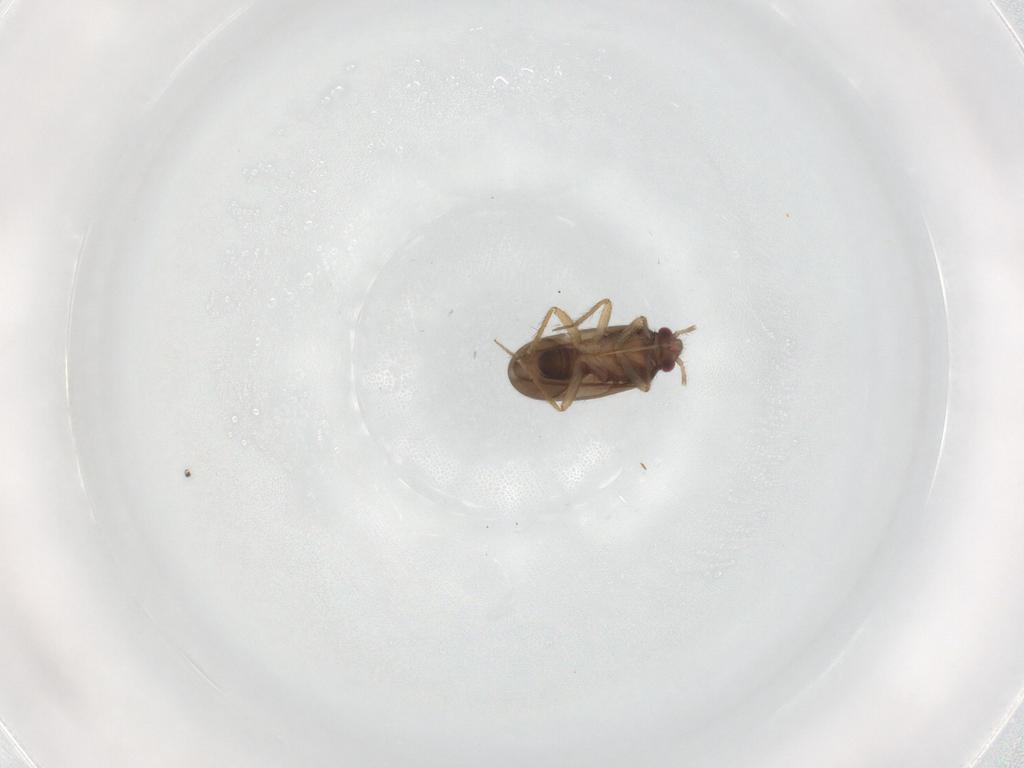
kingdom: Animalia
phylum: Arthropoda
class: Insecta
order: Hemiptera
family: Ceratocombidae
